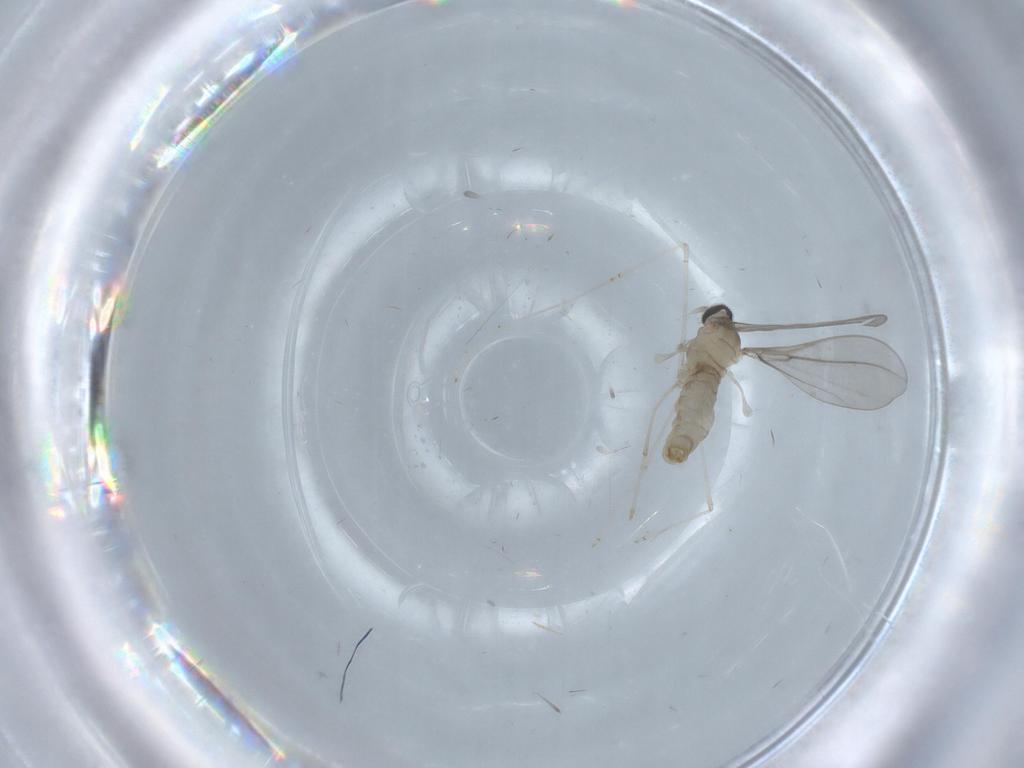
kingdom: Animalia
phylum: Arthropoda
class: Insecta
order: Diptera
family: Cecidomyiidae
